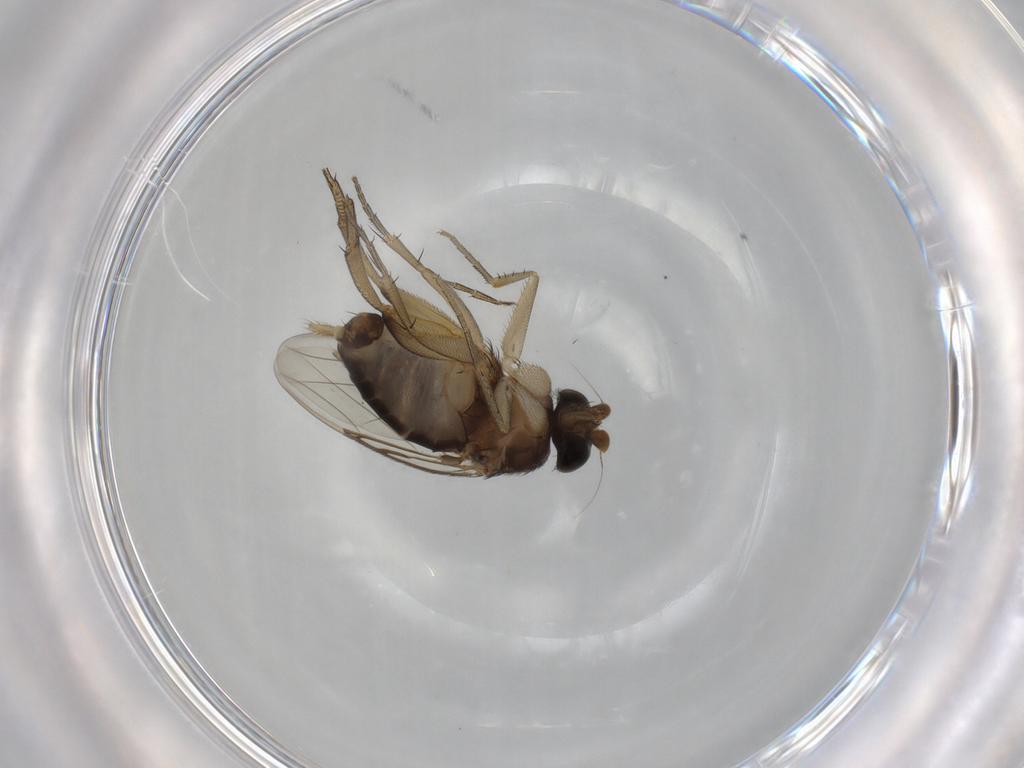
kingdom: Animalia
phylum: Arthropoda
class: Insecta
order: Diptera
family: Phoridae
